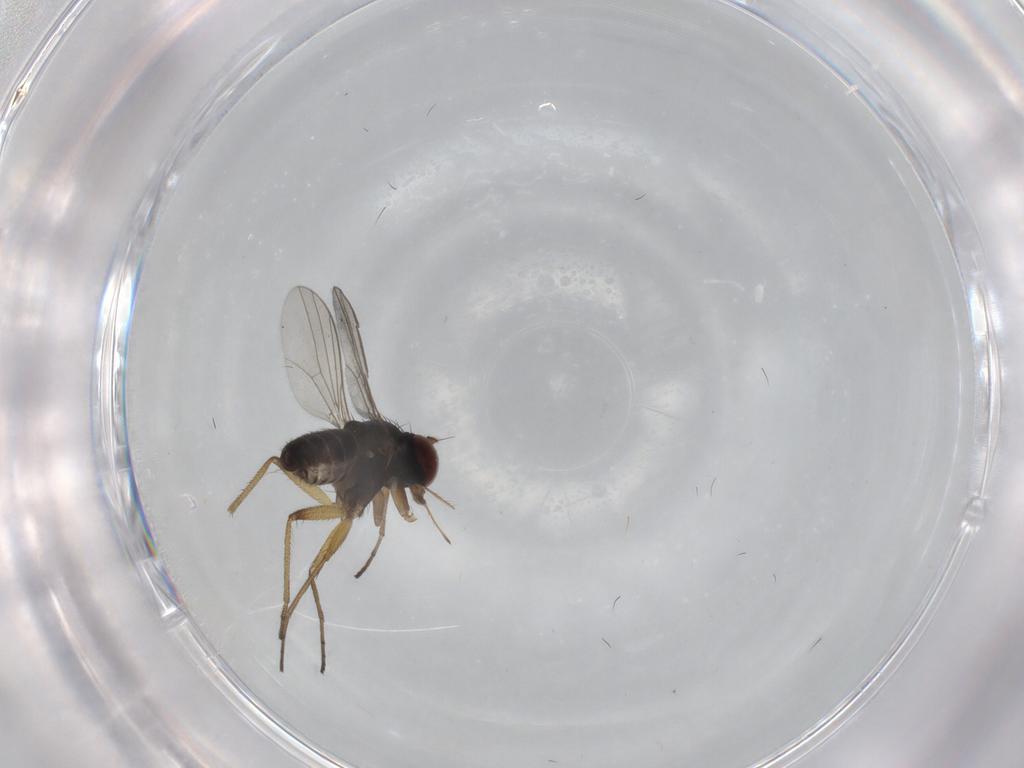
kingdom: Animalia
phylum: Arthropoda
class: Insecta
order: Diptera
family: Dolichopodidae
